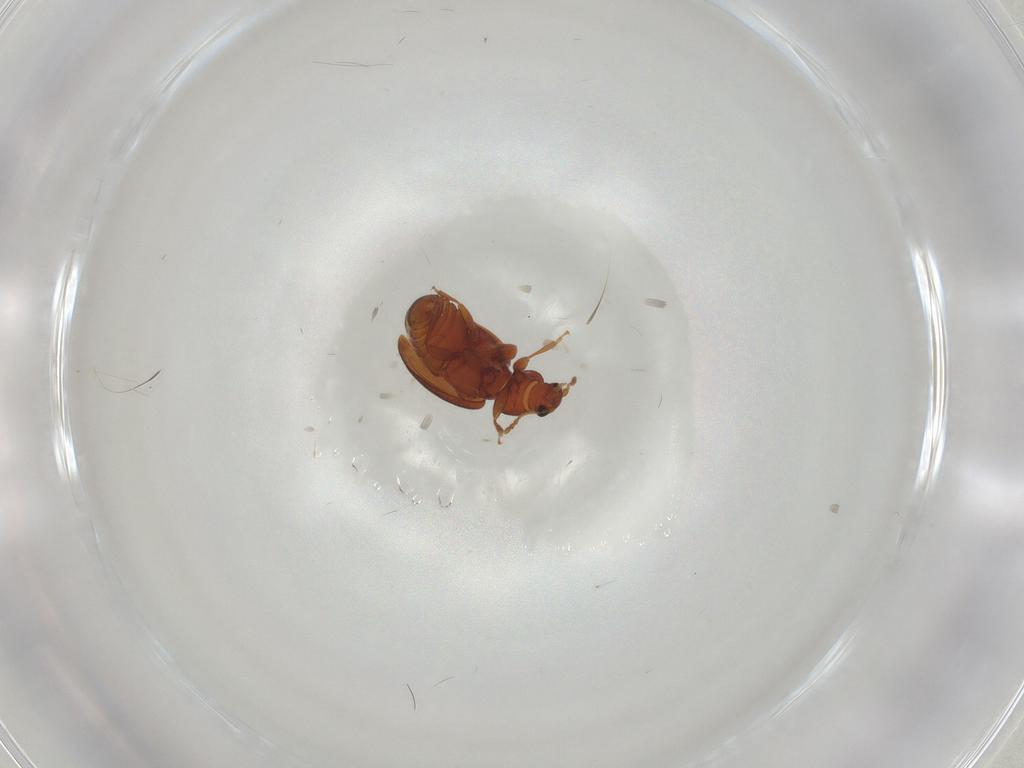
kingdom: Animalia
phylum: Arthropoda
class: Insecta
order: Coleoptera
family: Latridiidae
